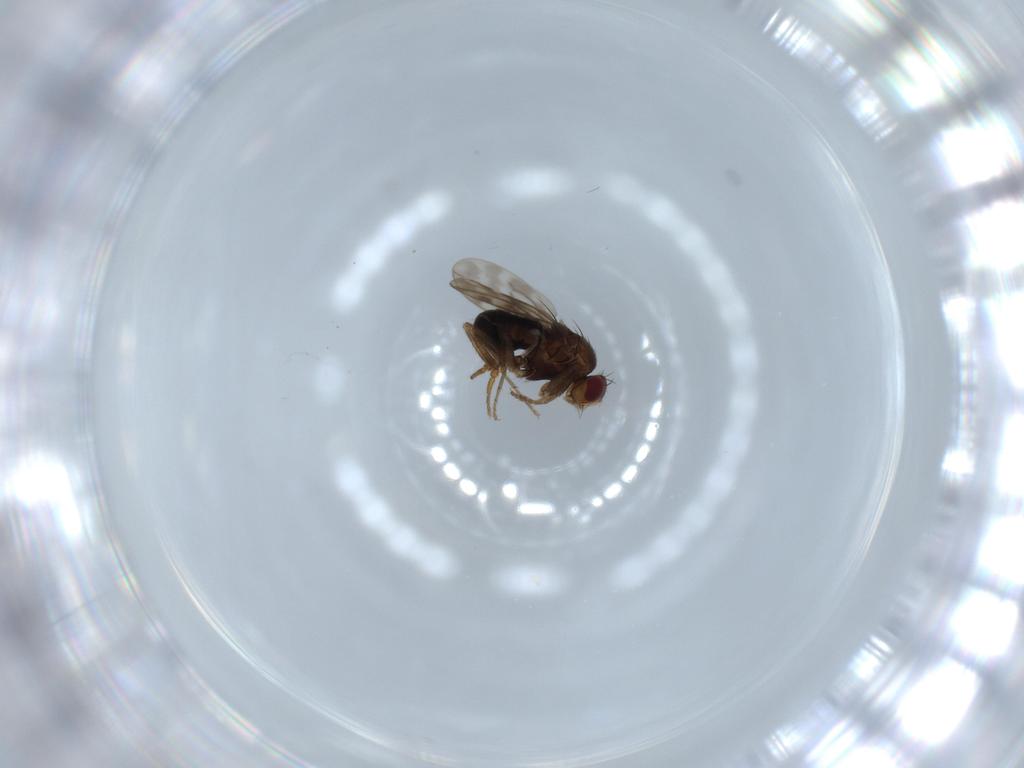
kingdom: Animalia
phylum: Arthropoda
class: Insecta
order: Diptera
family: Sphaeroceridae
